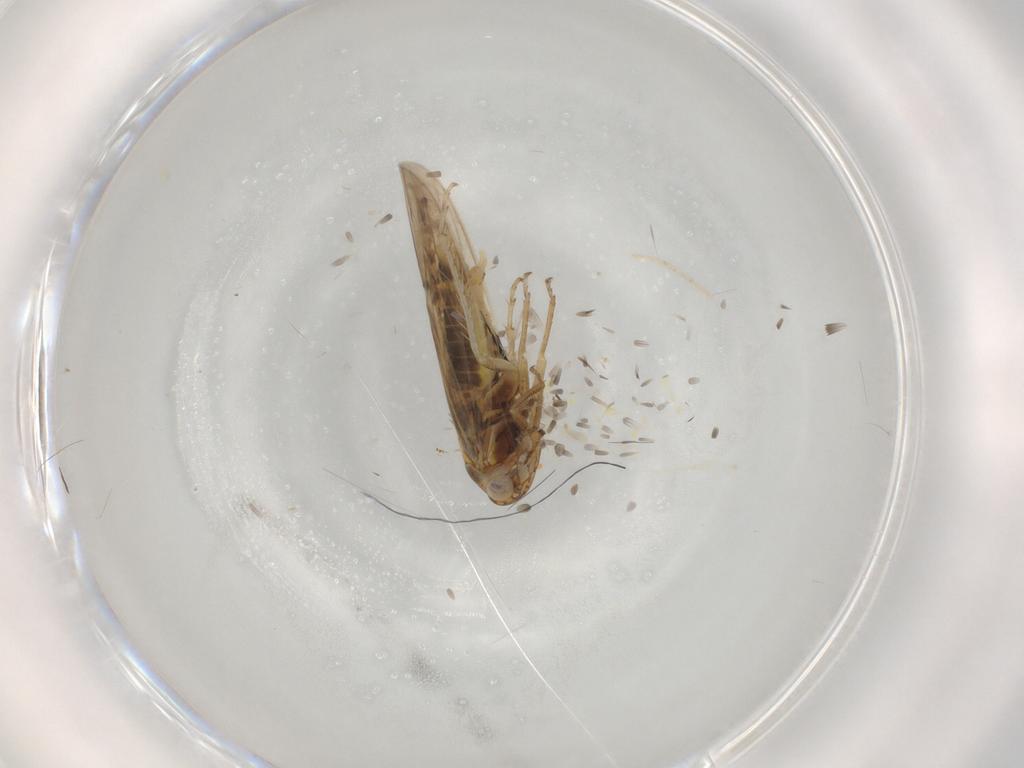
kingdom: Animalia
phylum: Arthropoda
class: Insecta
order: Hemiptera
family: Cicadellidae
